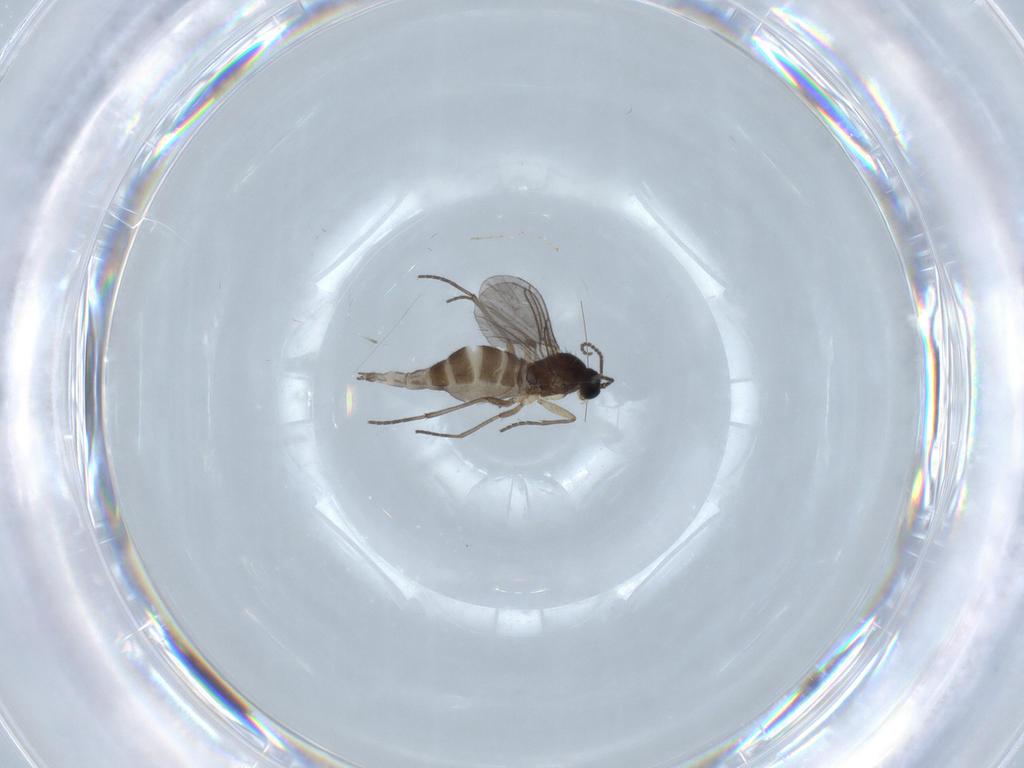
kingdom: Animalia
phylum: Arthropoda
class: Insecta
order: Diptera
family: Sciaridae
